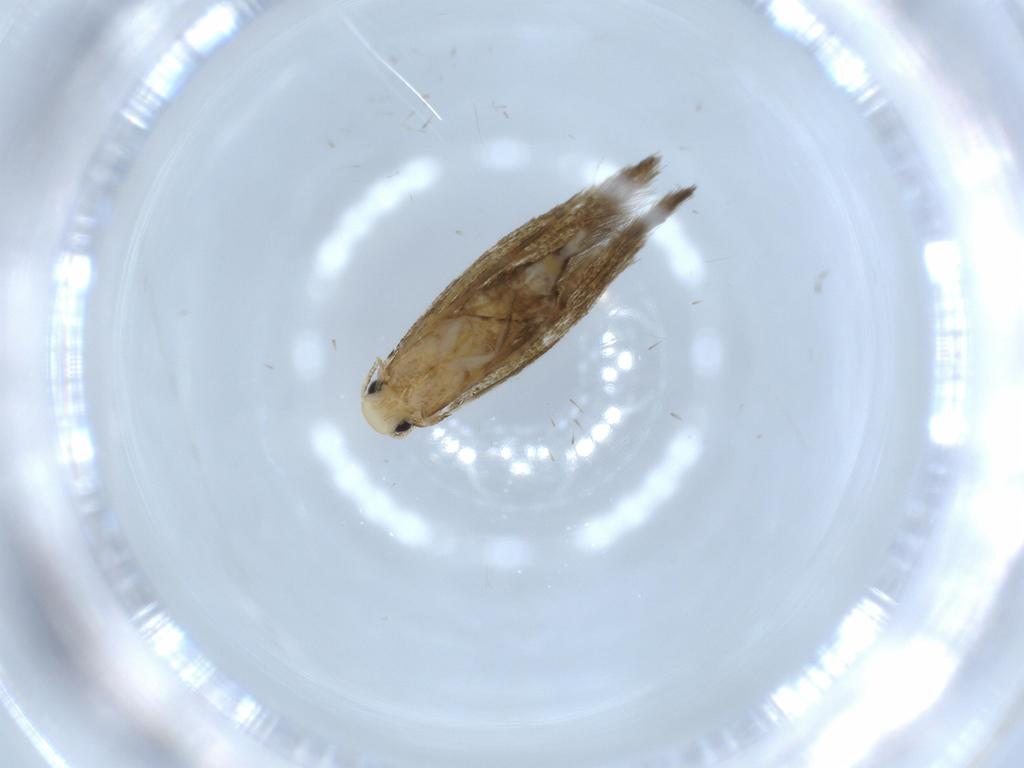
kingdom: Animalia
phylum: Arthropoda
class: Insecta
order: Lepidoptera
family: Tineidae
